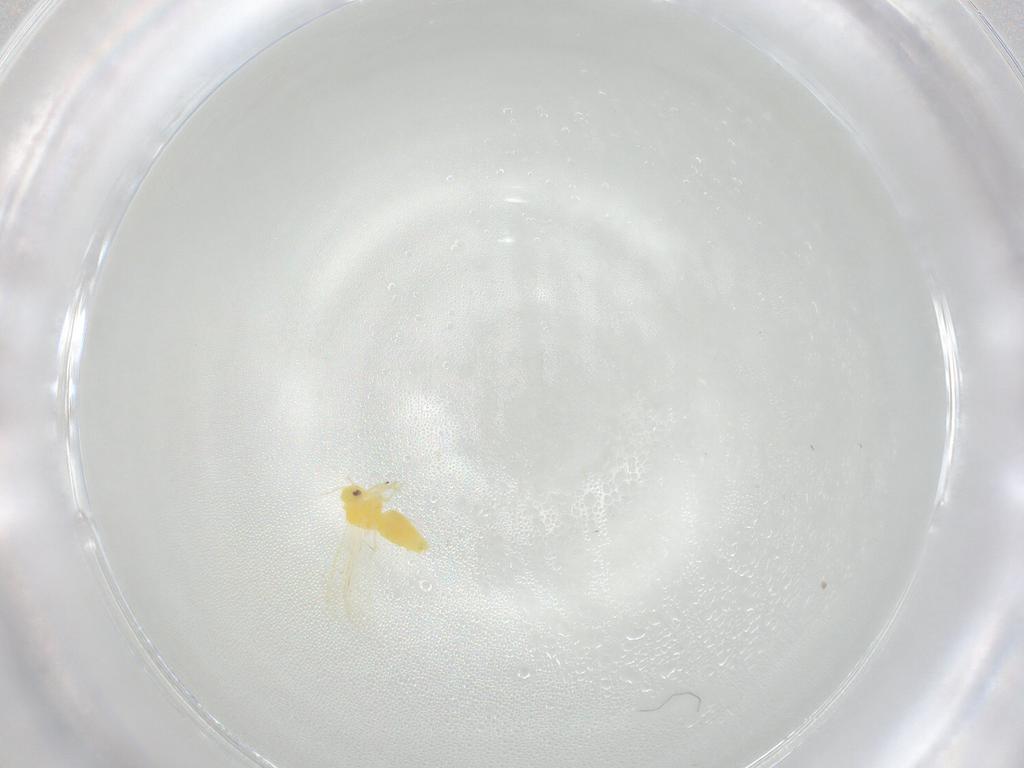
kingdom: Animalia
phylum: Arthropoda
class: Insecta
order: Hemiptera
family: Aleyrodidae
